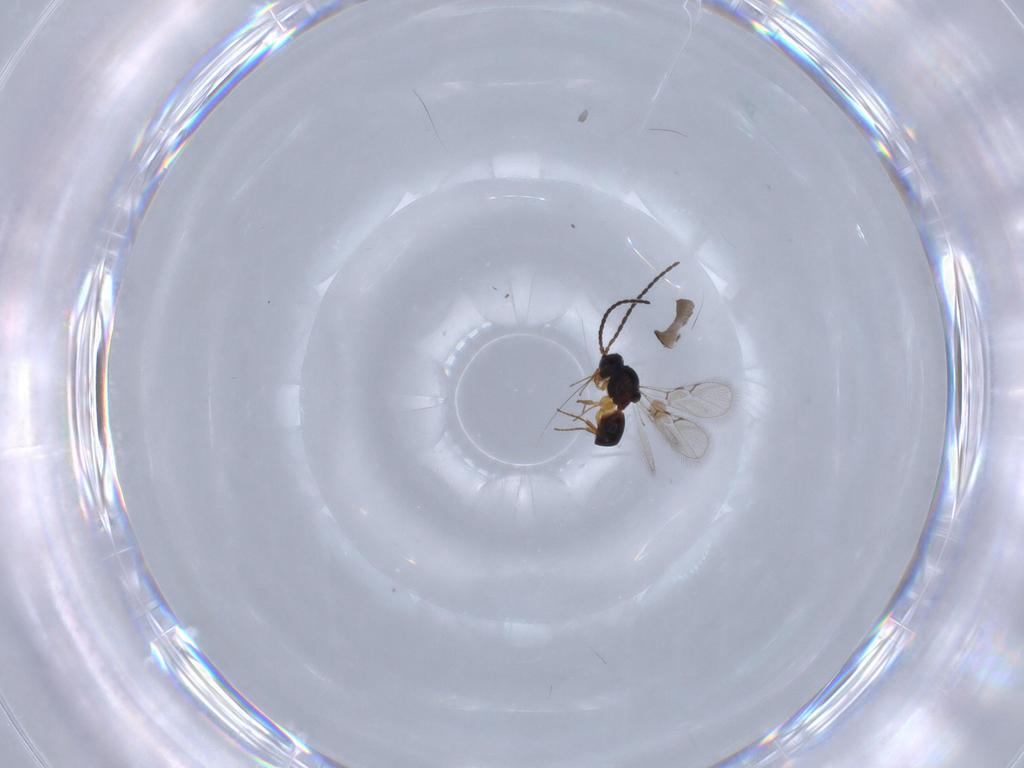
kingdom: Animalia
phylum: Arthropoda
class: Insecta
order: Hymenoptera
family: Figitidae
